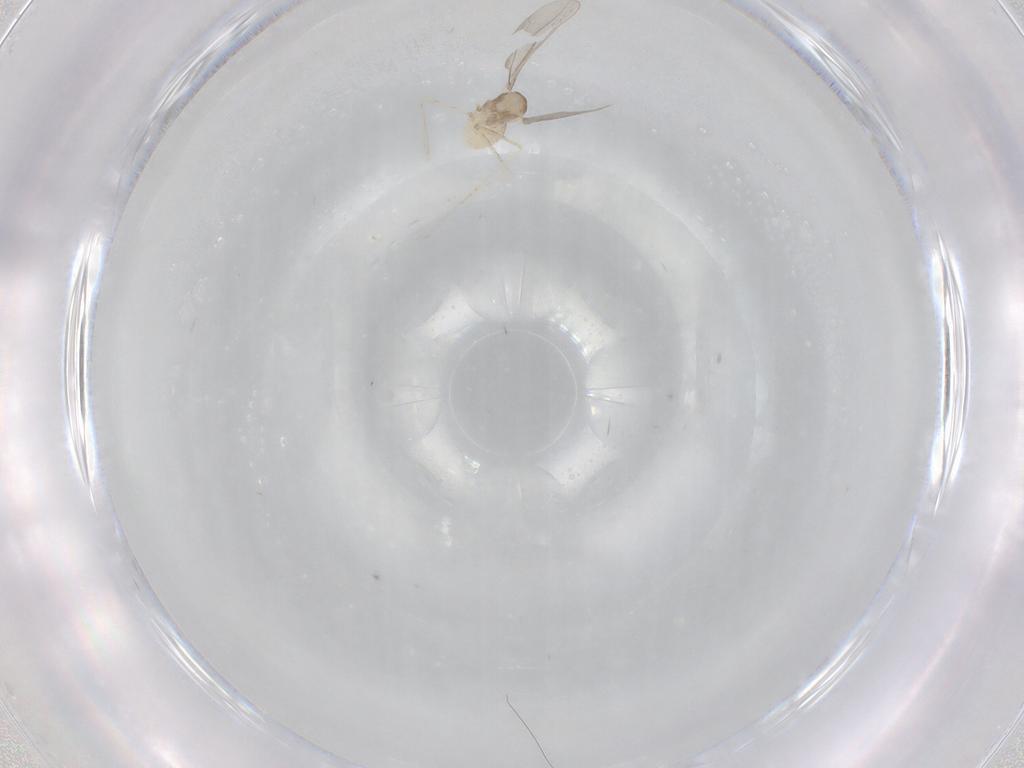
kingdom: Animalia
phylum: Arthropoda
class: Insecta
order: Diptera
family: Cecidomyiidae
